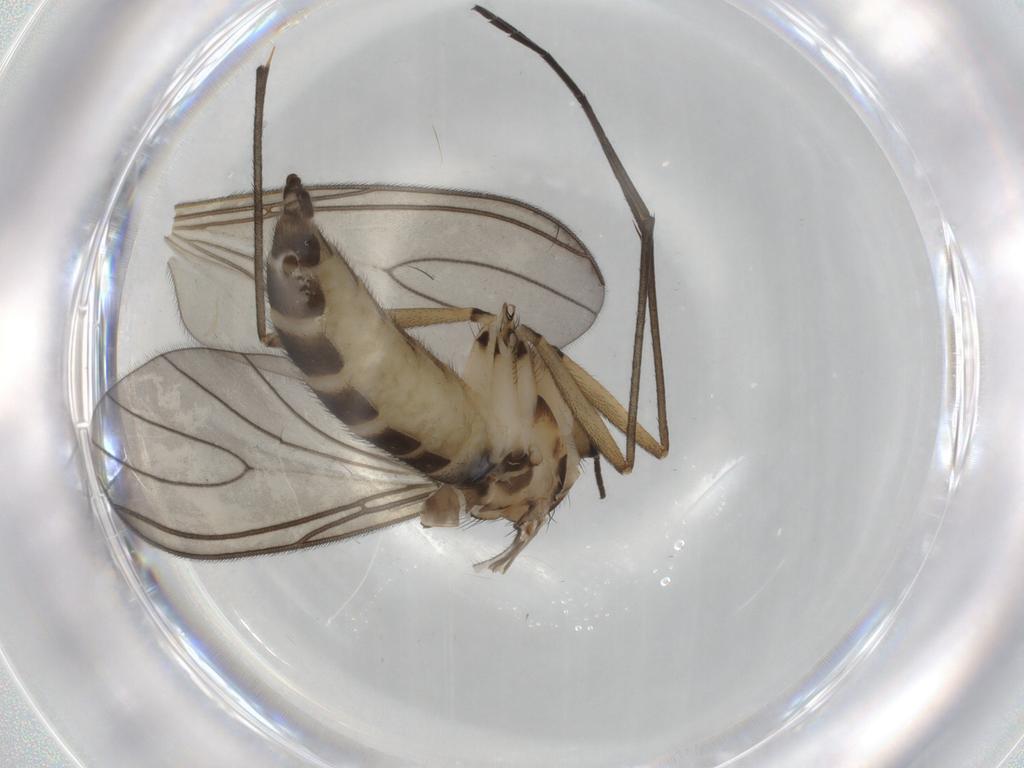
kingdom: Animalia
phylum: Arthropoda
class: Insecta
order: Diptera
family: Sciaridae
